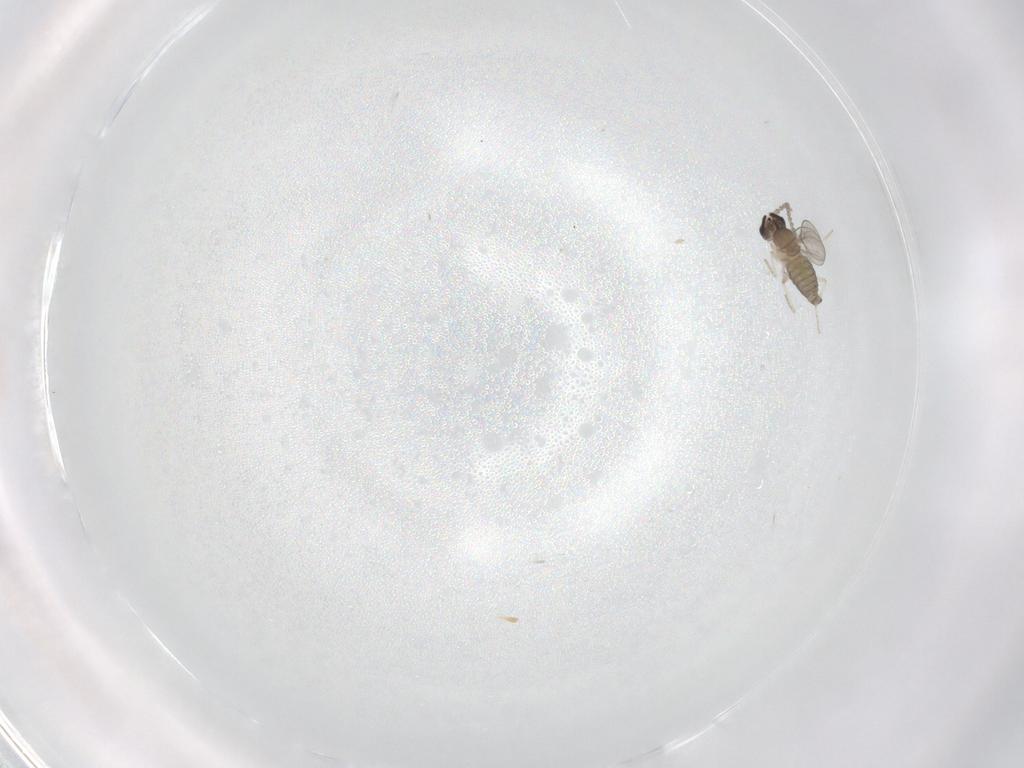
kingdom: Animalia
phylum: Arthropoda
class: Insecta
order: Diptera
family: Cecidomyiidae
